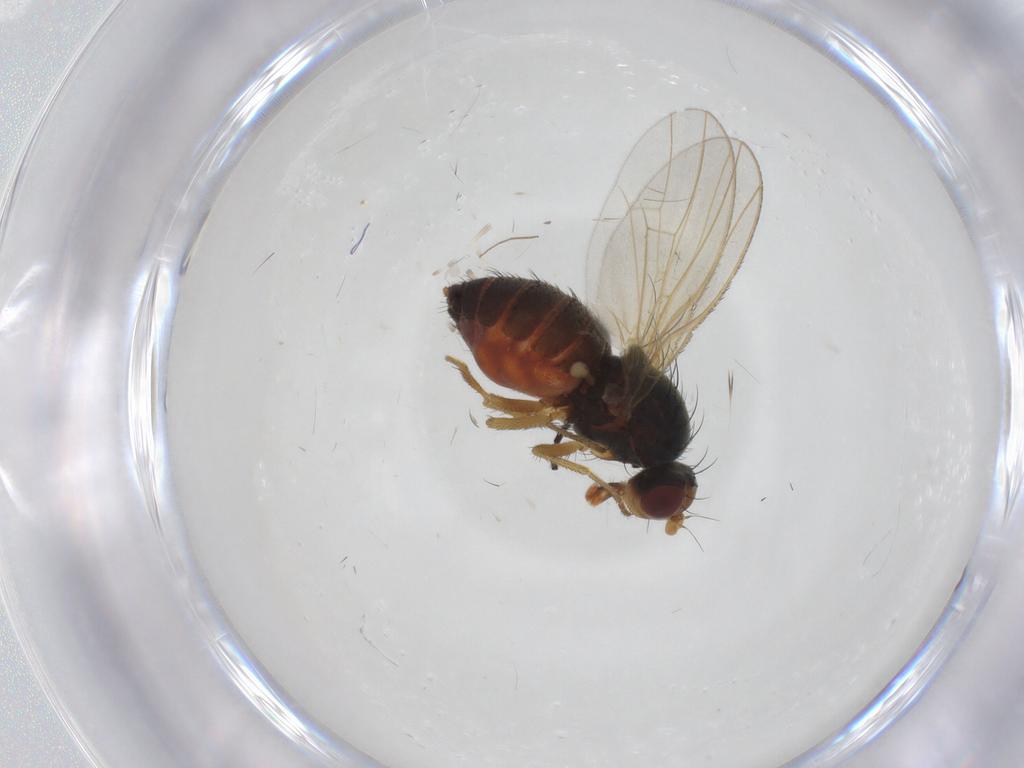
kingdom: Animalia
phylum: Arthropoda
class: Insecta
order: Diptera
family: Heleomyzidae
